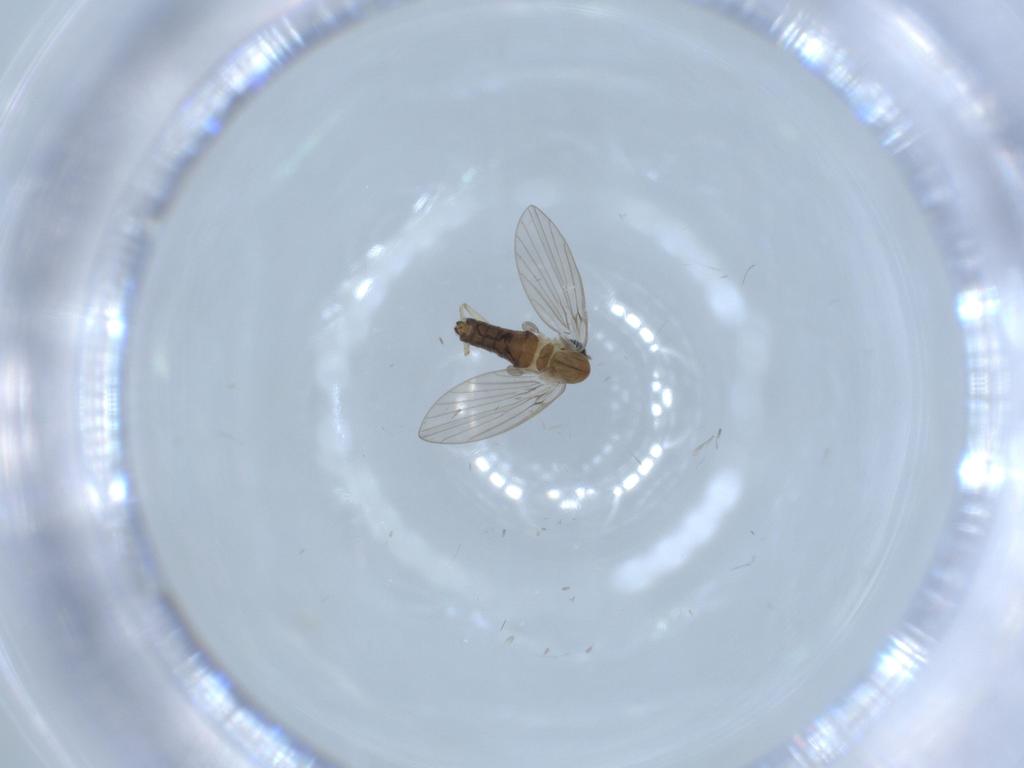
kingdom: Animalia
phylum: Arthropoda
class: Insecta
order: Diptera
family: Psychodidae
